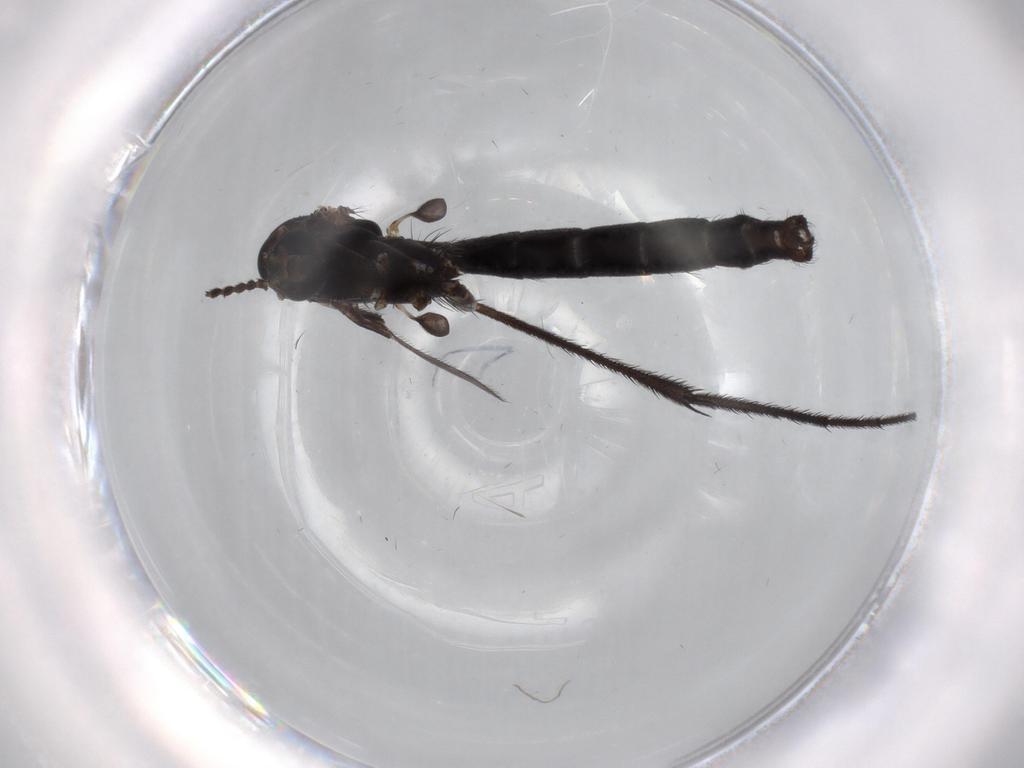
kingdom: Animalia
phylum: Arthropoda
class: Insecta
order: Diptera
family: Ditomyiidae
